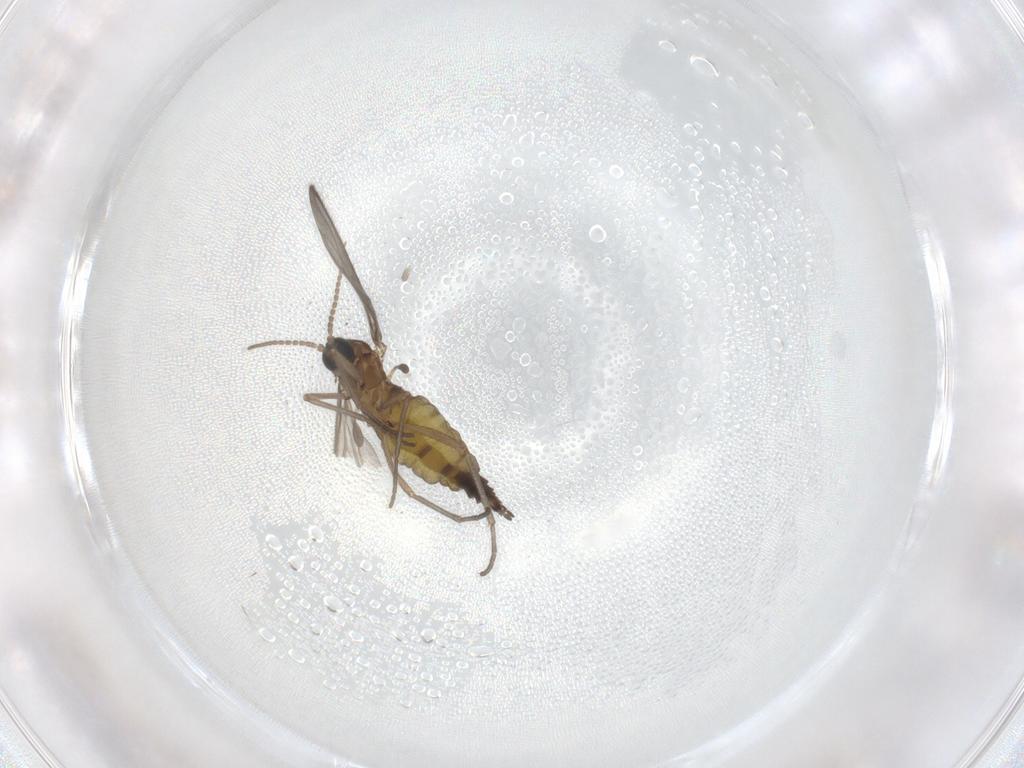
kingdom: Animalia
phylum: Arthropoda
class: Insecta
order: Diptera
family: Sciaridae
